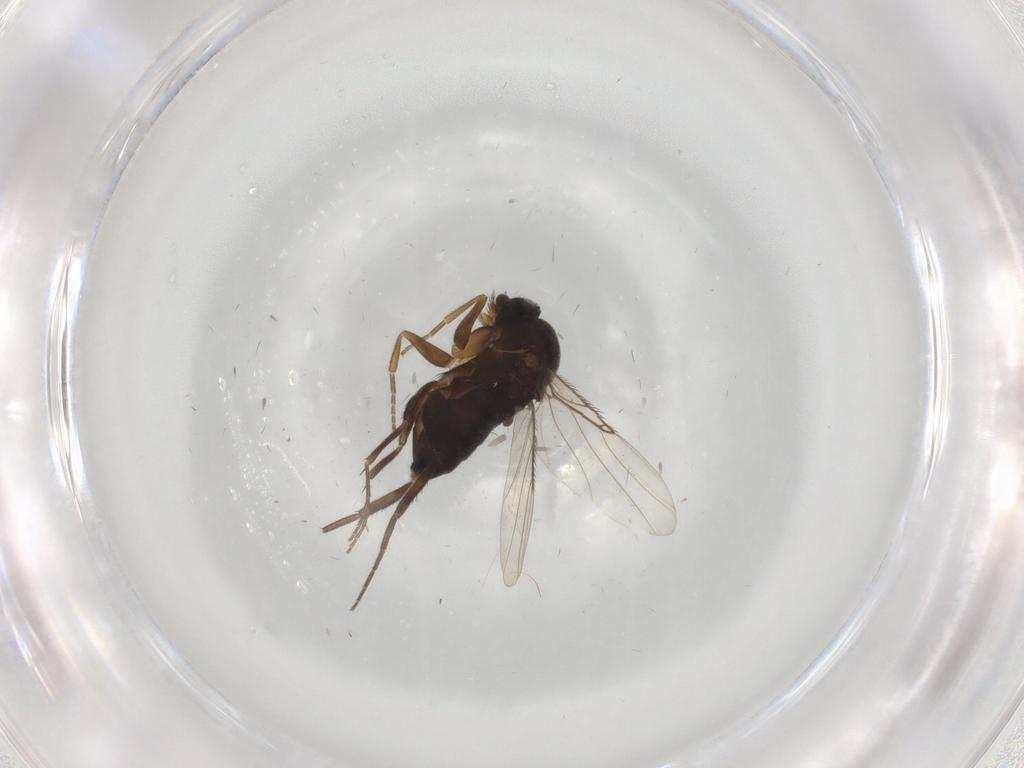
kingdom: Animalia
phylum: Arthropoda
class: Insecta
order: Diptera
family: Phoridae
